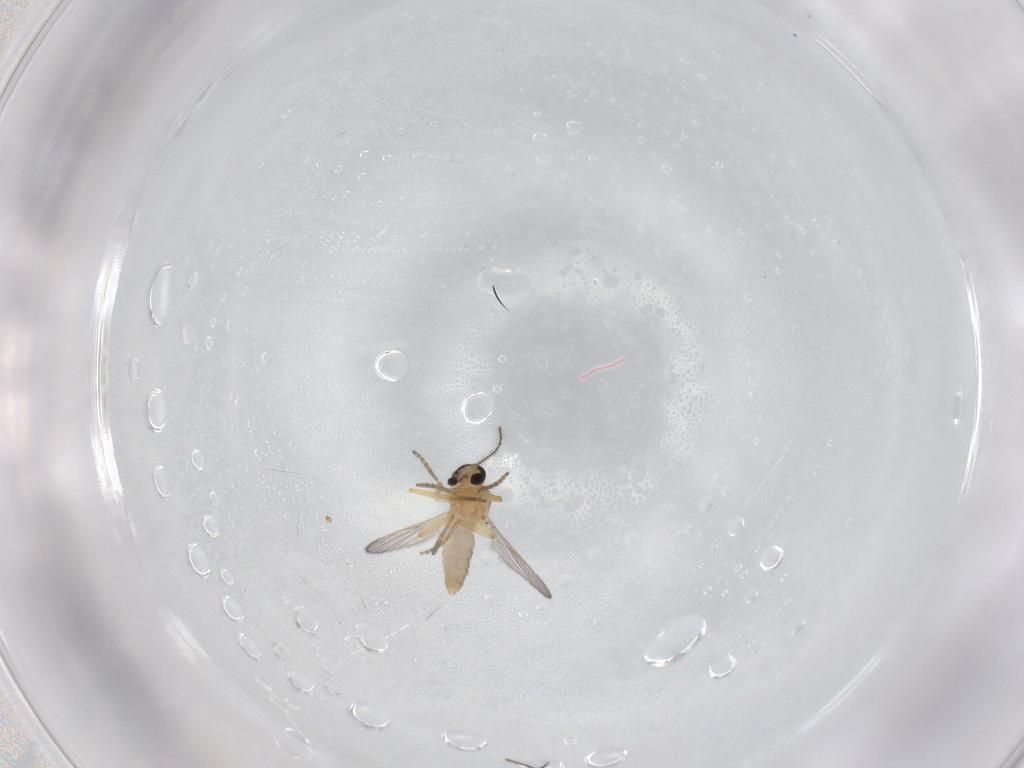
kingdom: Animalia
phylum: Arthropoda
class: Insecta
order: Diptera
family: Ceratopogonidae
